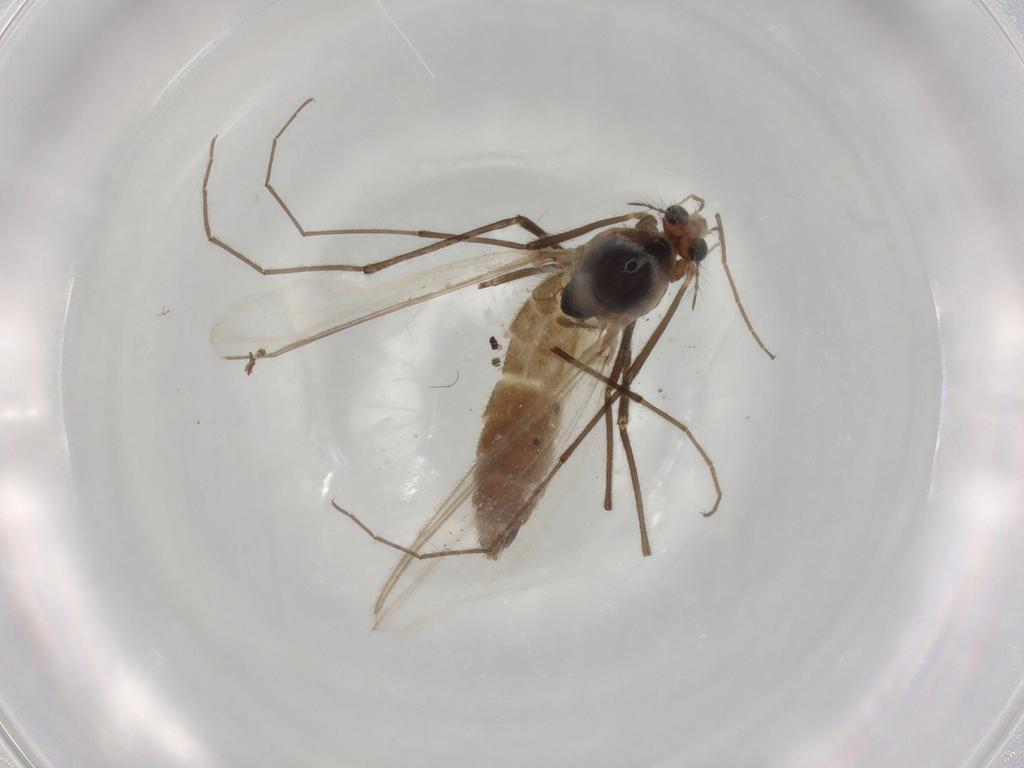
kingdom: Animalia
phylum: Arthropoda
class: Insecta
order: Diptera
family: Chironomidae
